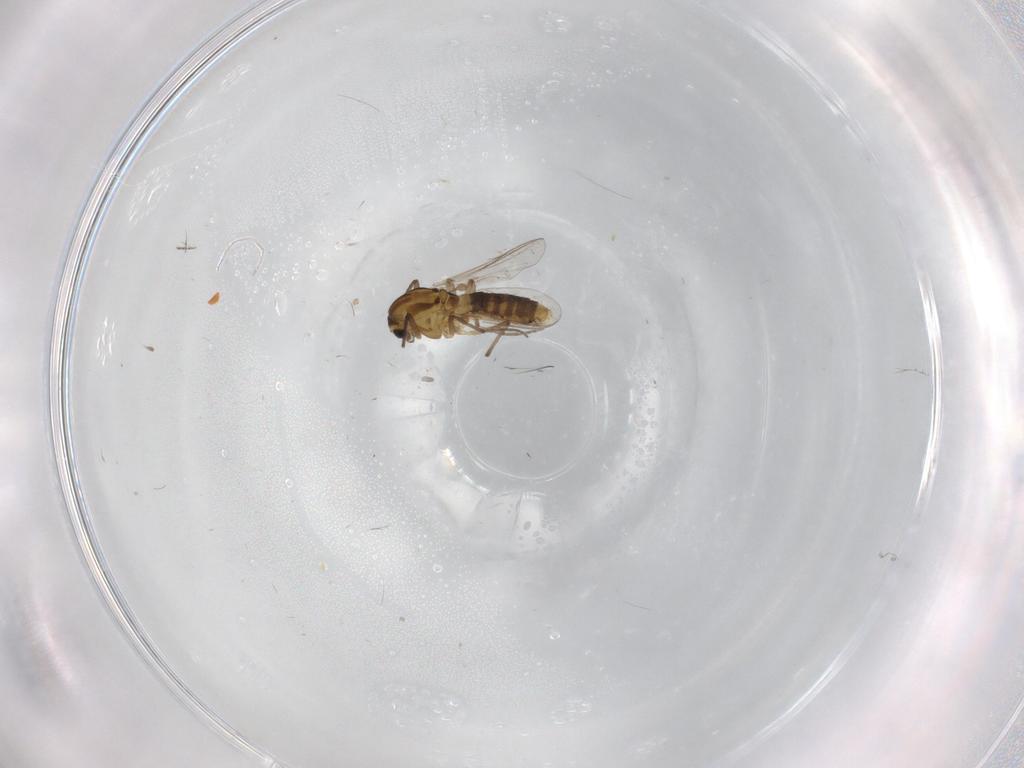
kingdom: Animalia
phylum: Arthropoda
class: Insecta
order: Diptera
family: Chironomidae
